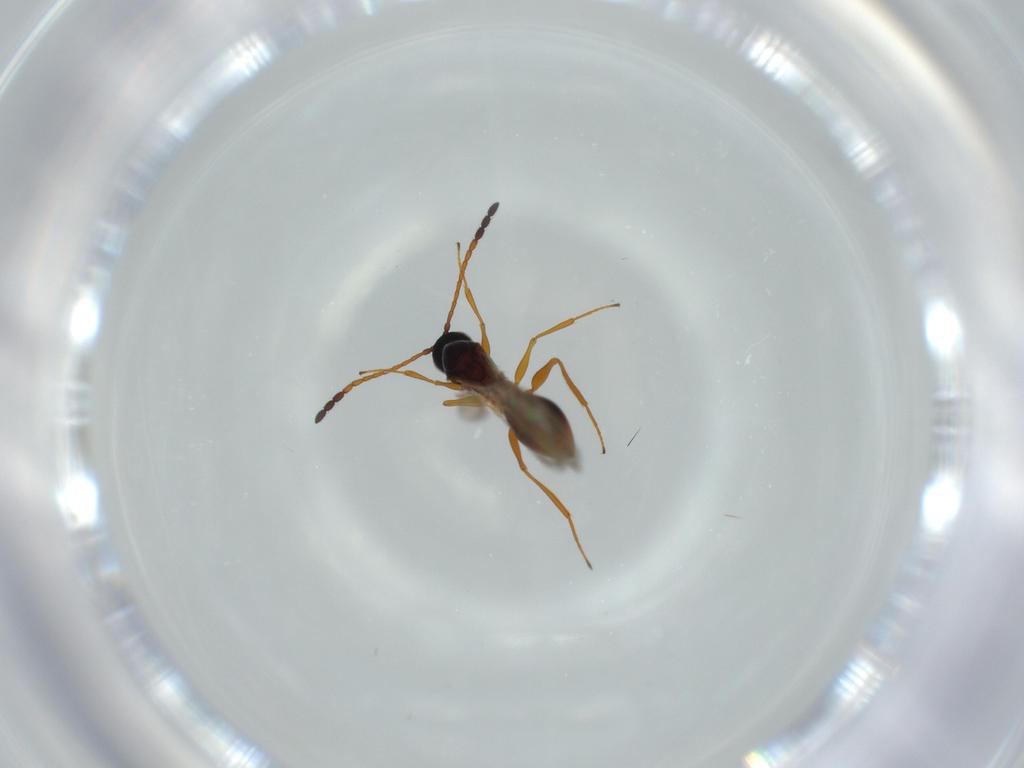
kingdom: Animalia
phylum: Arthropoda
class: Insecta
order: Hymenoptera
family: Figitidae
